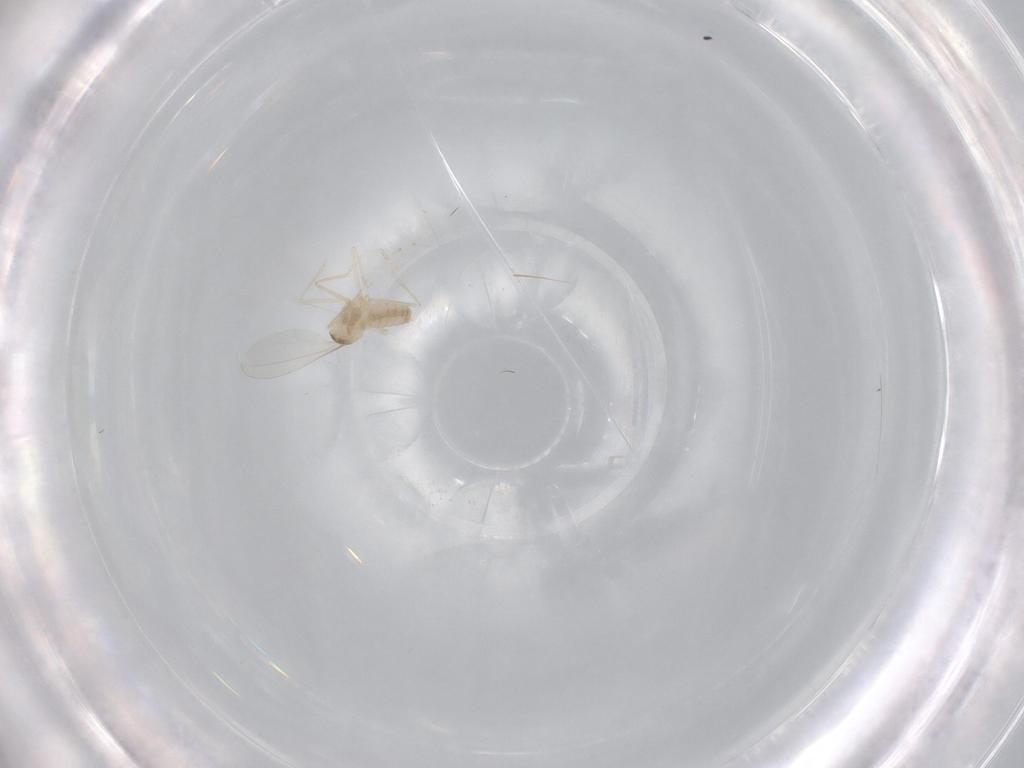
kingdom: Animalia
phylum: Arthropoda
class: Insecta
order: Diptera
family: Cecidomyiidae
